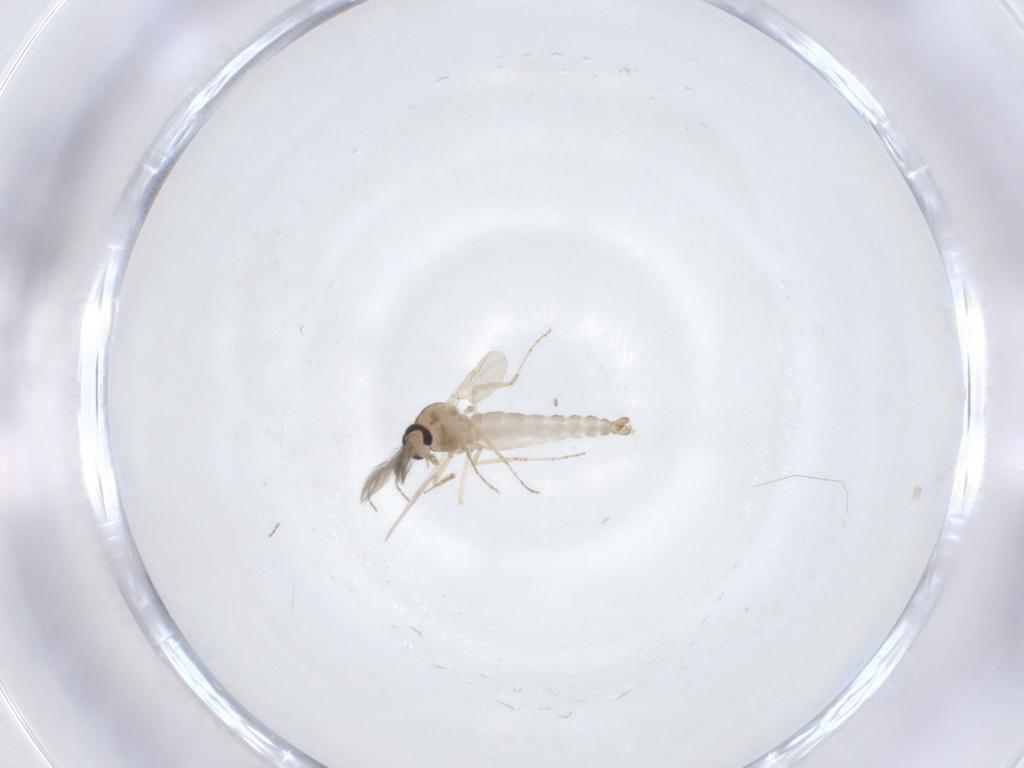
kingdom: Animalia
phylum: Arthropoda
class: Insecta
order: Diptera
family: Ceratopogonidae
